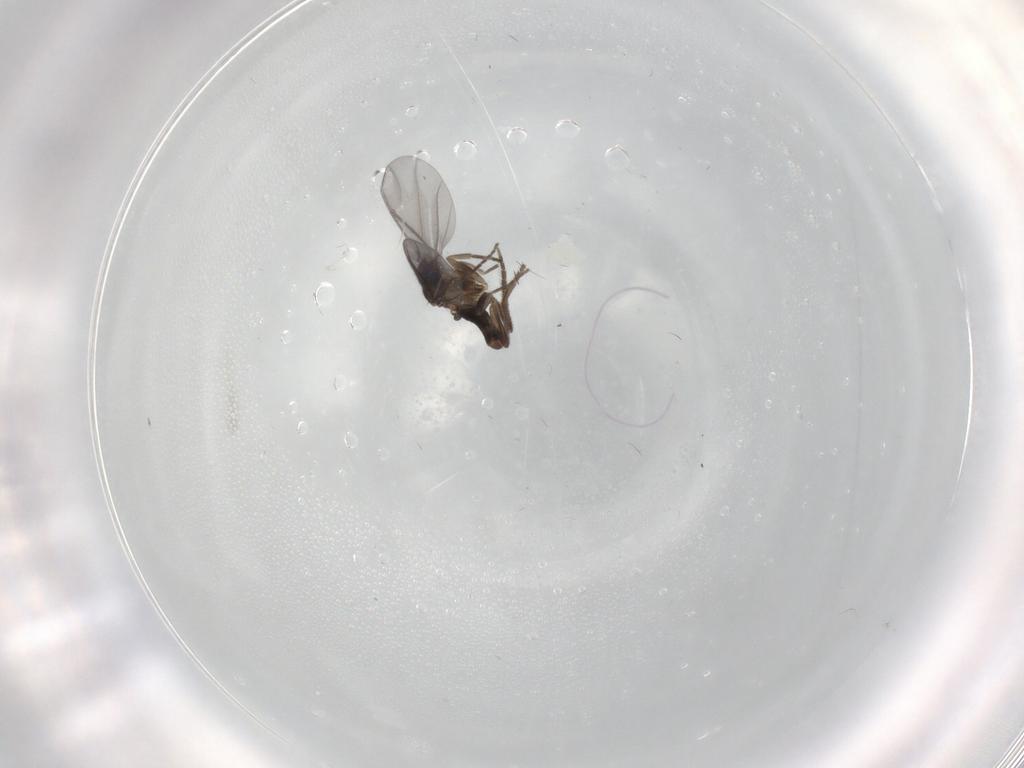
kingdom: Animalia
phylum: Arthropoda
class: Insecta
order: Diptera
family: Milichiidae
